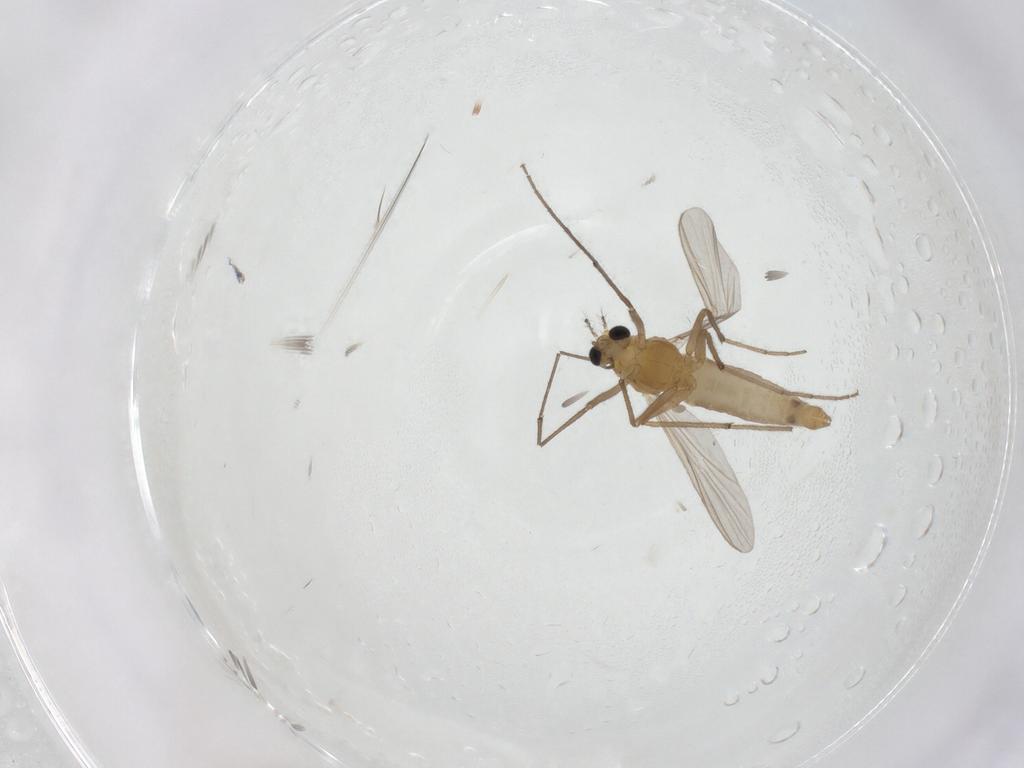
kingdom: Animalia
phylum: Arthropoda
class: Insecta
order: Diptera
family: Chironomidae
